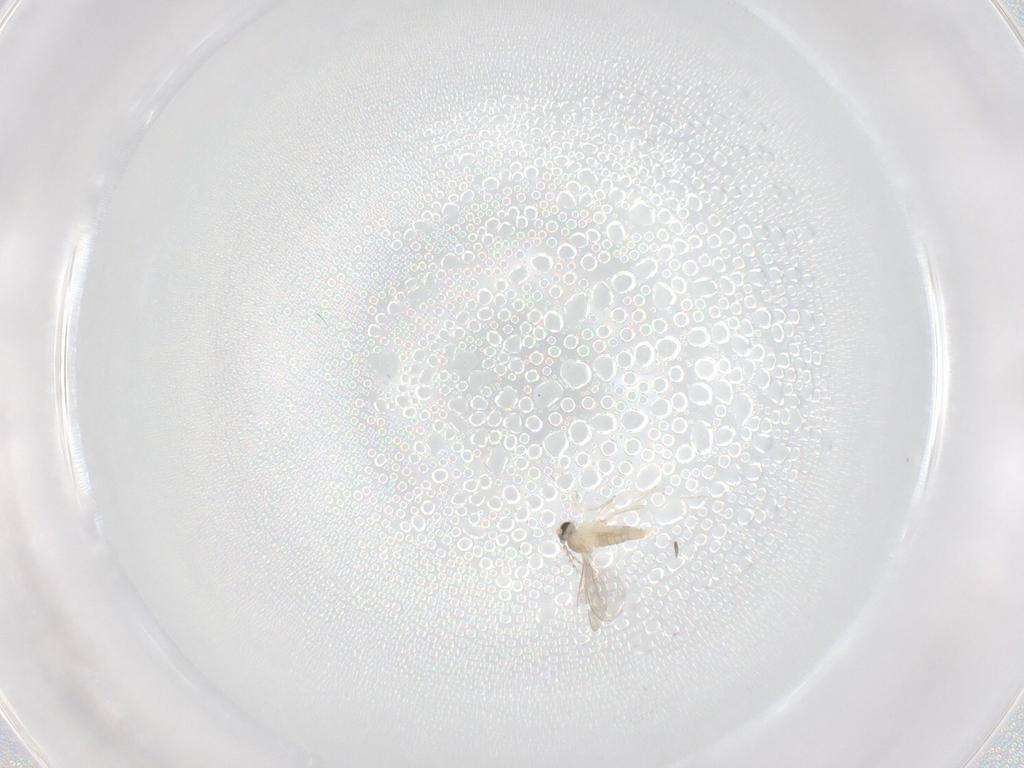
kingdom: Animalia
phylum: Arthropoda
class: Insecta
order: Diptera
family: Cecidomyiidae
